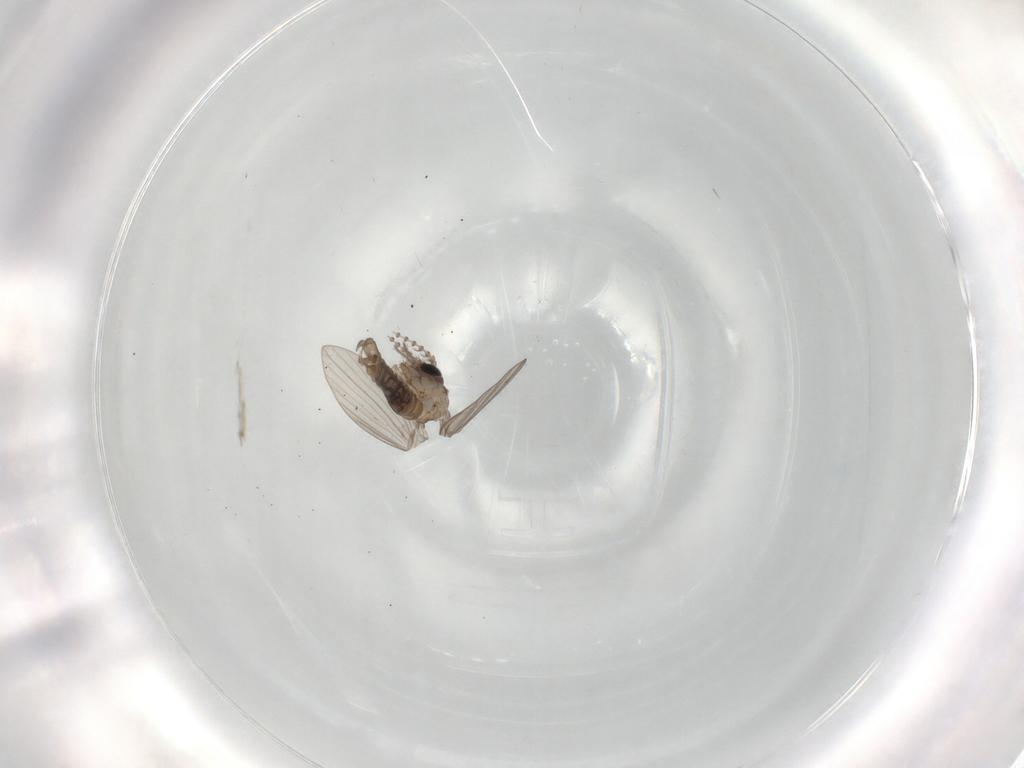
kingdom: Animalia
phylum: Arthropoda
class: Insecta
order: Diptera
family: Psychodidae
